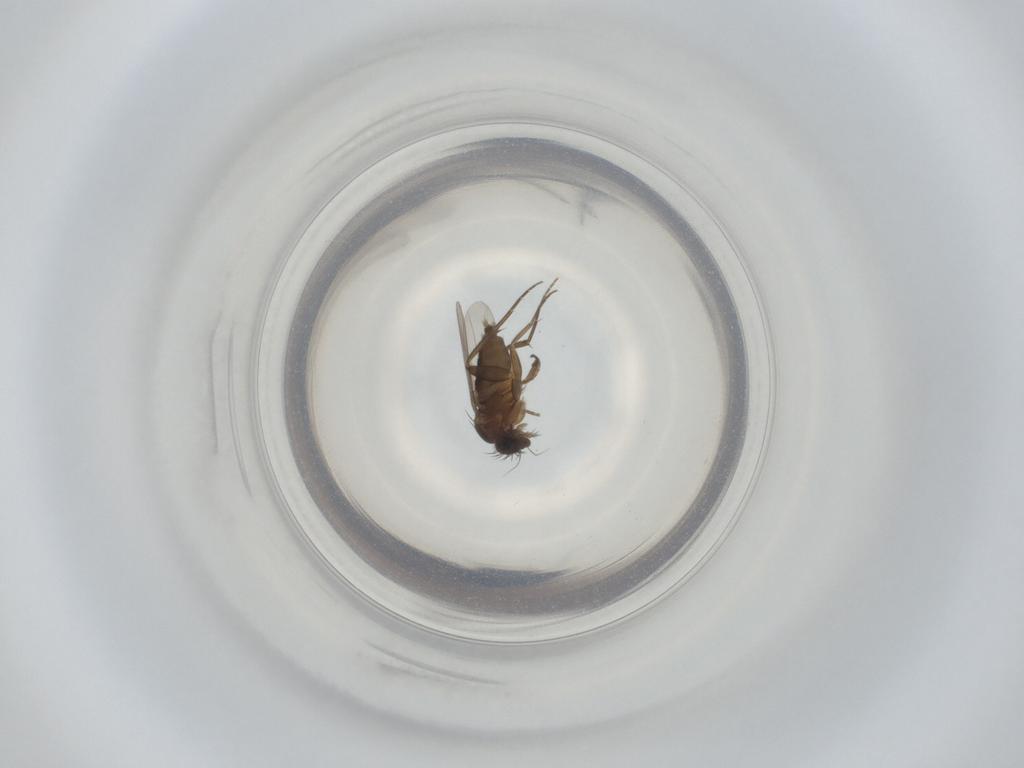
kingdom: Animalia
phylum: Arthropoda
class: Insecta
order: Diptera
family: Phoridae
